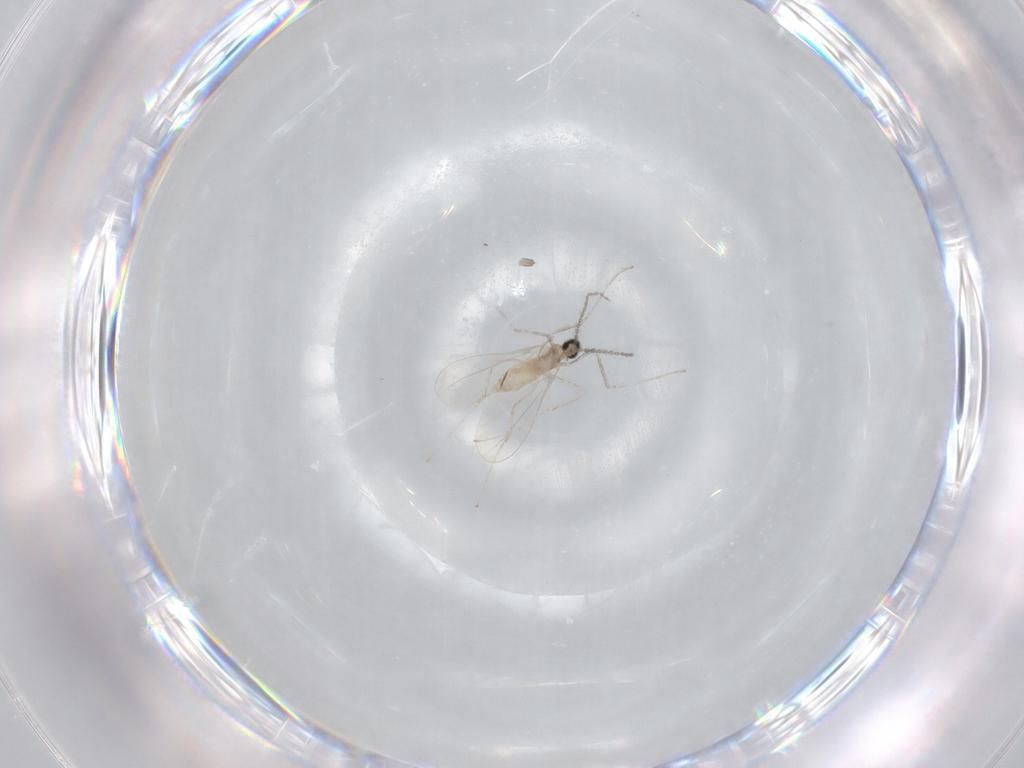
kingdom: Animalia
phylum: Arthropoda
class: Insecta
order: Diptera
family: Cecidomyiidae
